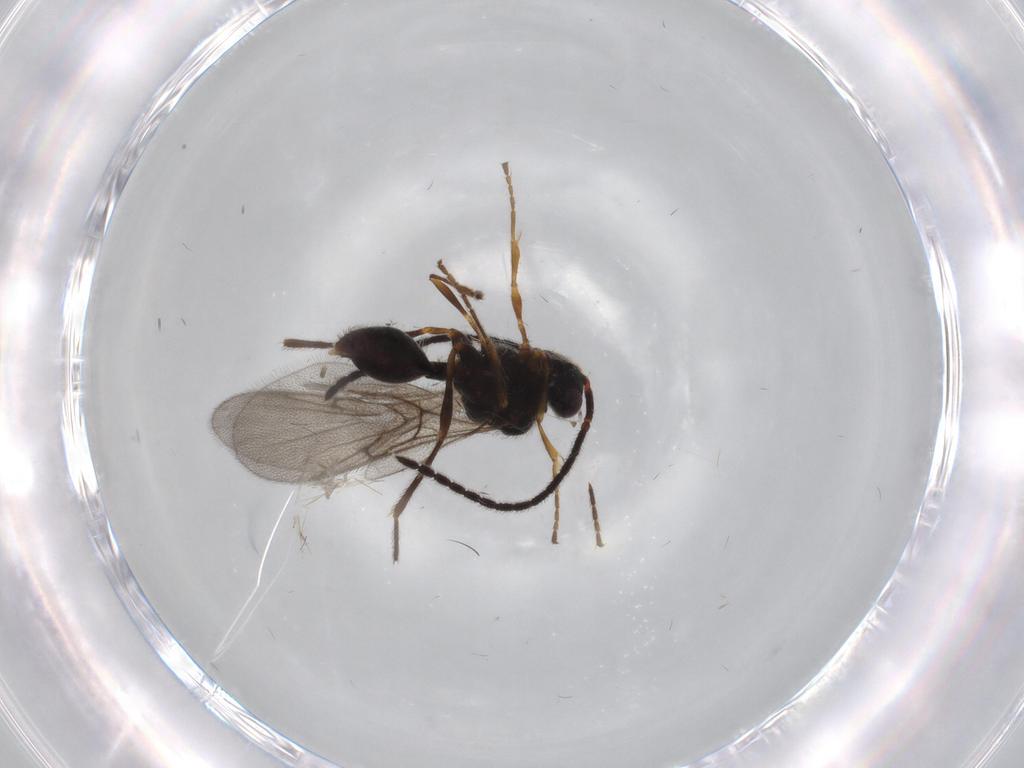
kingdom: Animalia
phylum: Arthropoda
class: Insecta
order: Hymenoptera
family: Diapriidae
